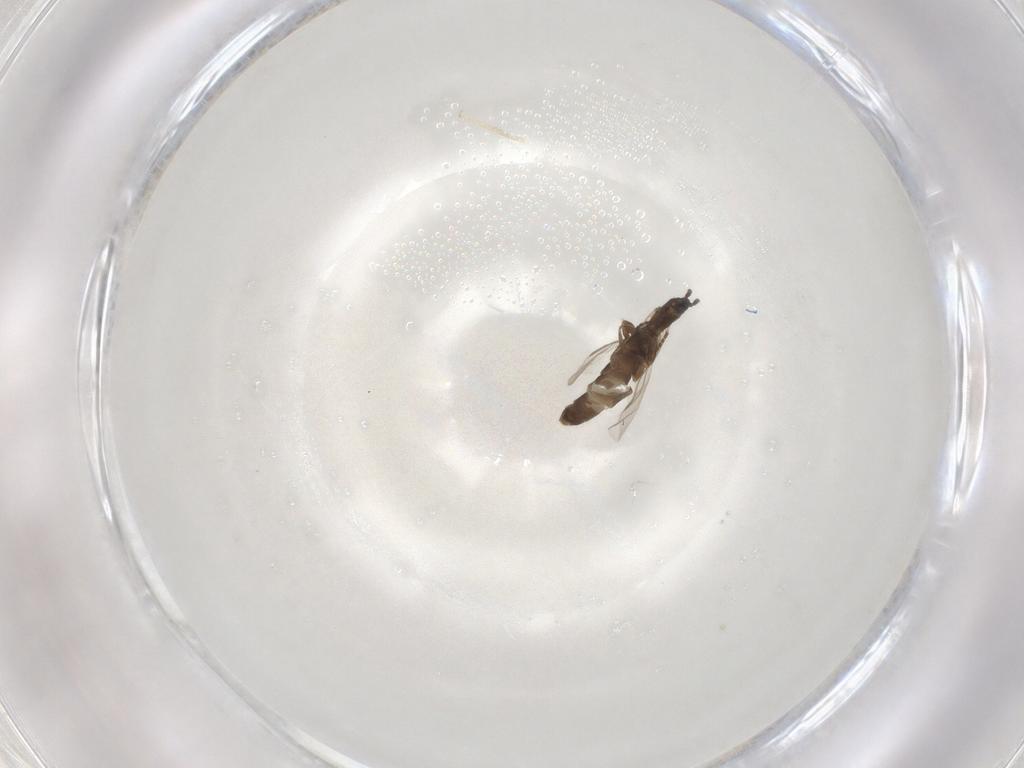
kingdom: Animalia
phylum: Arthropoda
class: Insecta
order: Diptera
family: Scatopsidae
